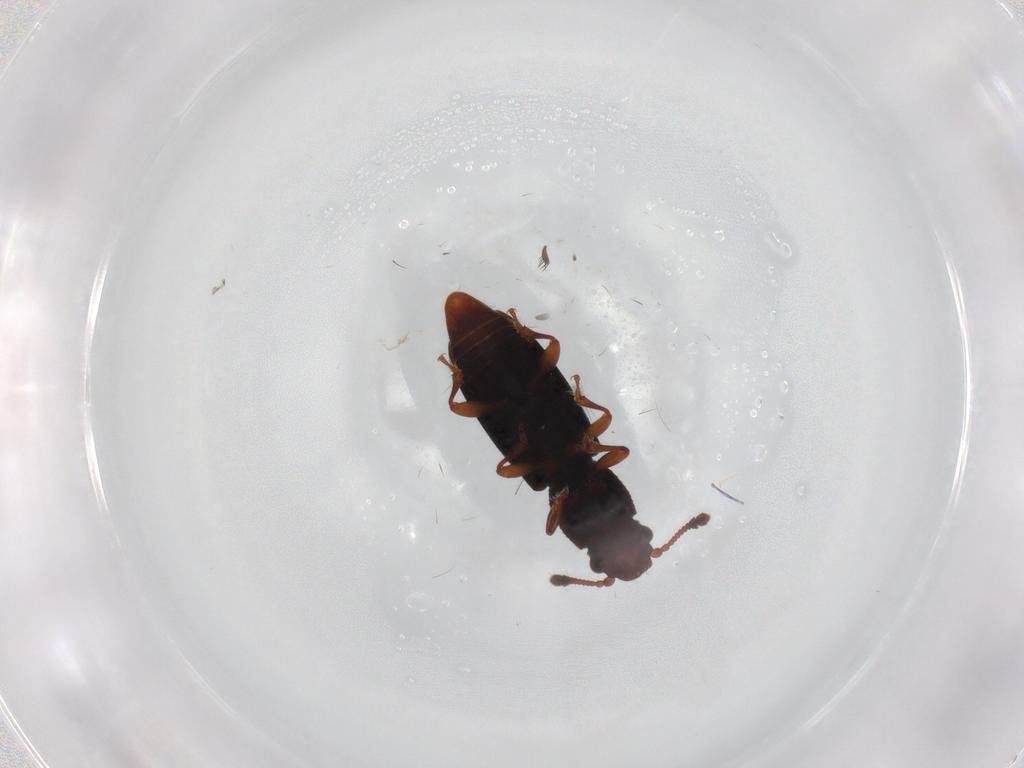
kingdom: Animalia
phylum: Arthropoda
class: Insecta
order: Coleoptera
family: Monotomidae
